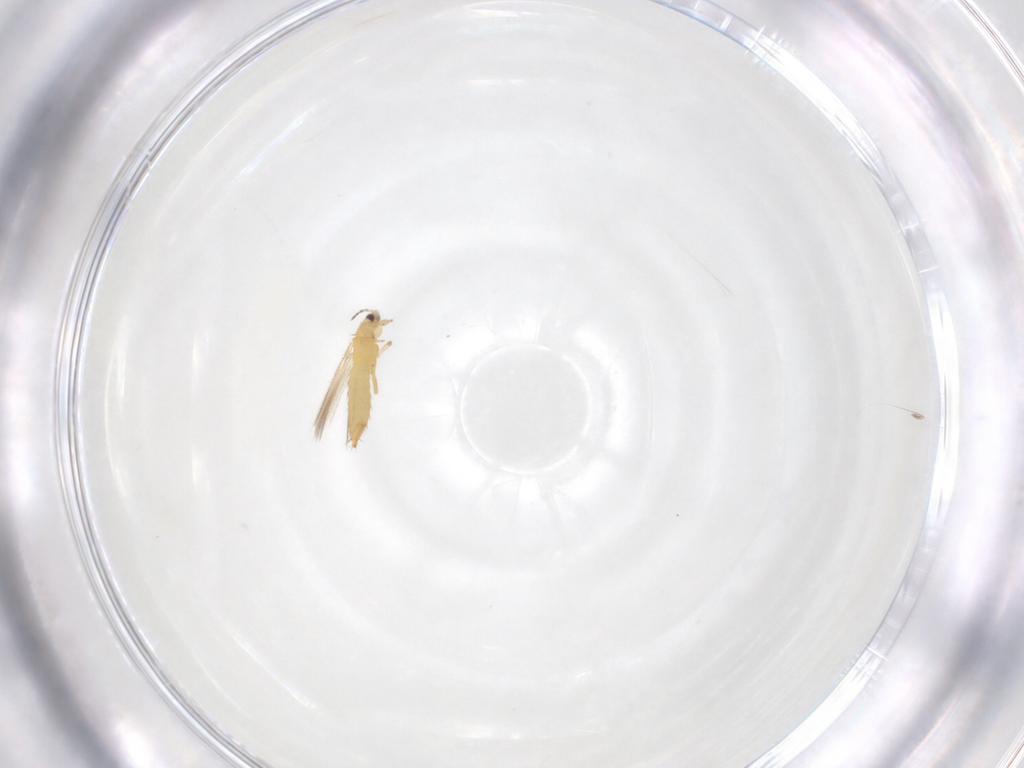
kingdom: Animalia
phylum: Arthropoda
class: Insecta
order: Thysanoptera
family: Thripidae
